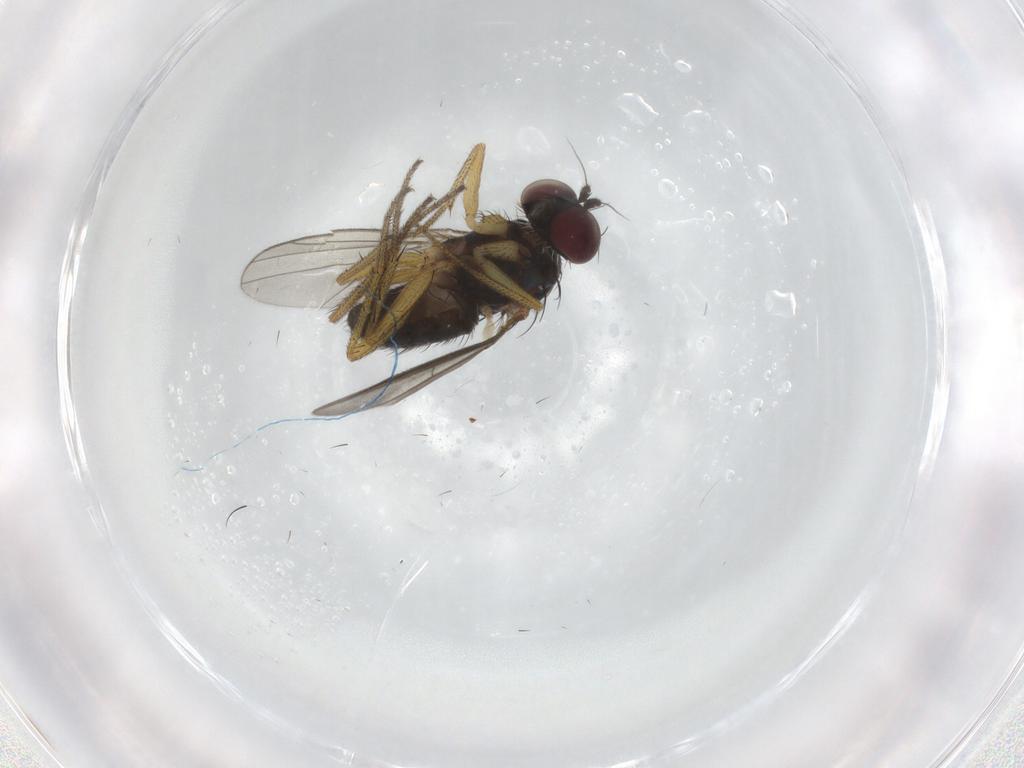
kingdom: Animalia
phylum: Arthropoda
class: Insecta
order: Diptera
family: Dolichopodidae
